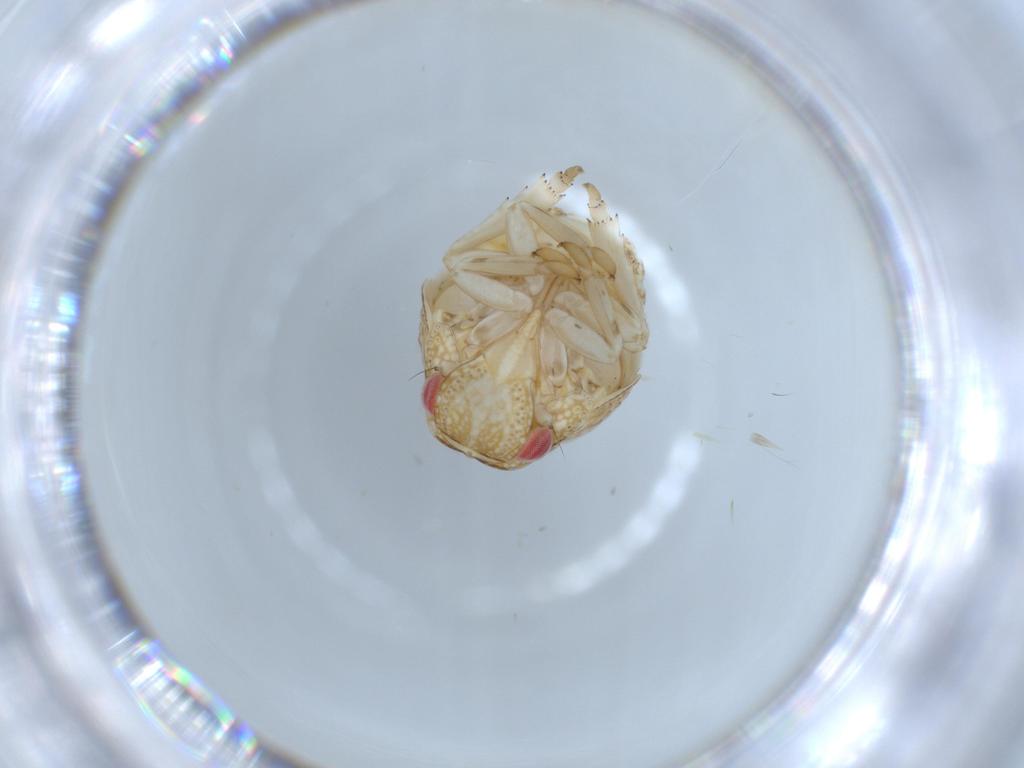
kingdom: Animalia
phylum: Arthropoda
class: Insecta
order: Hemiptera
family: Acanaloniidae
